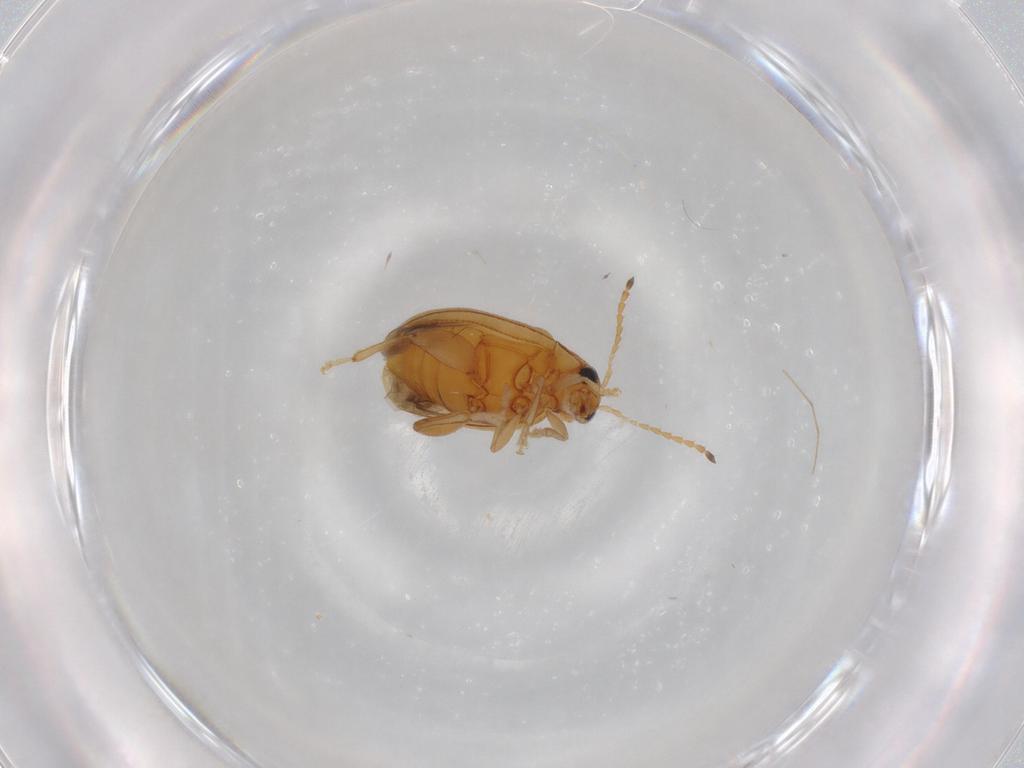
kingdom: Animalia
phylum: Arthropoda
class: Insecta
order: Coleoptera
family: Chrysomelidae
